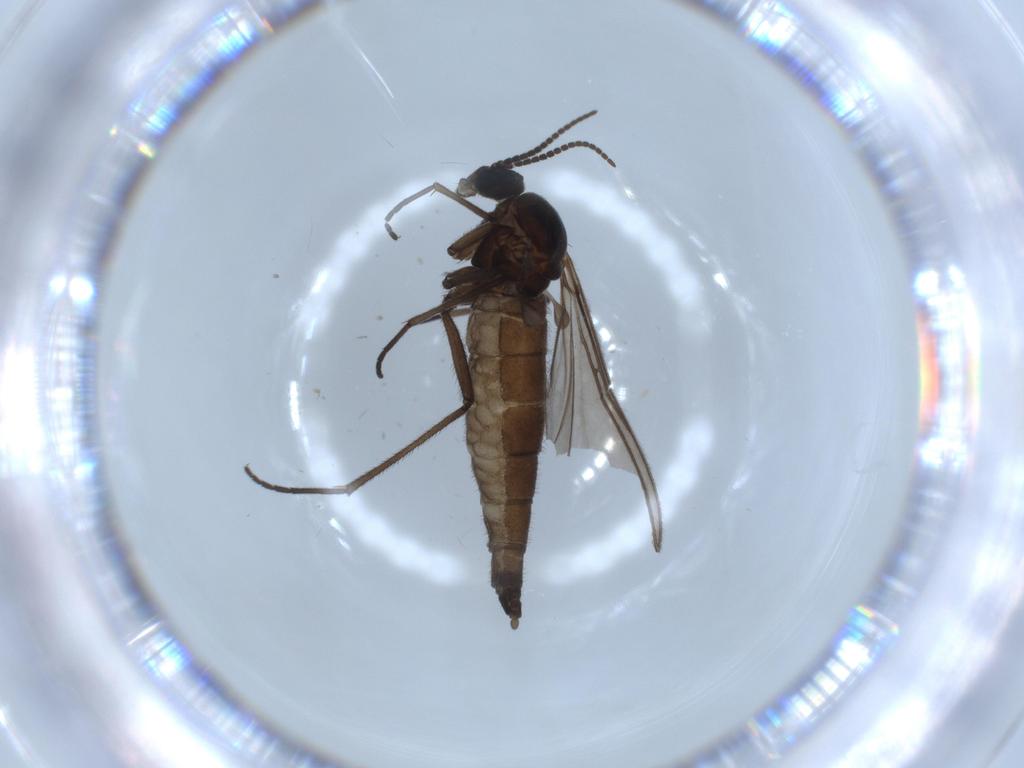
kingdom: Animalia
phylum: Arthropoda
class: Insecta
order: Diptera
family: Sciaridae
